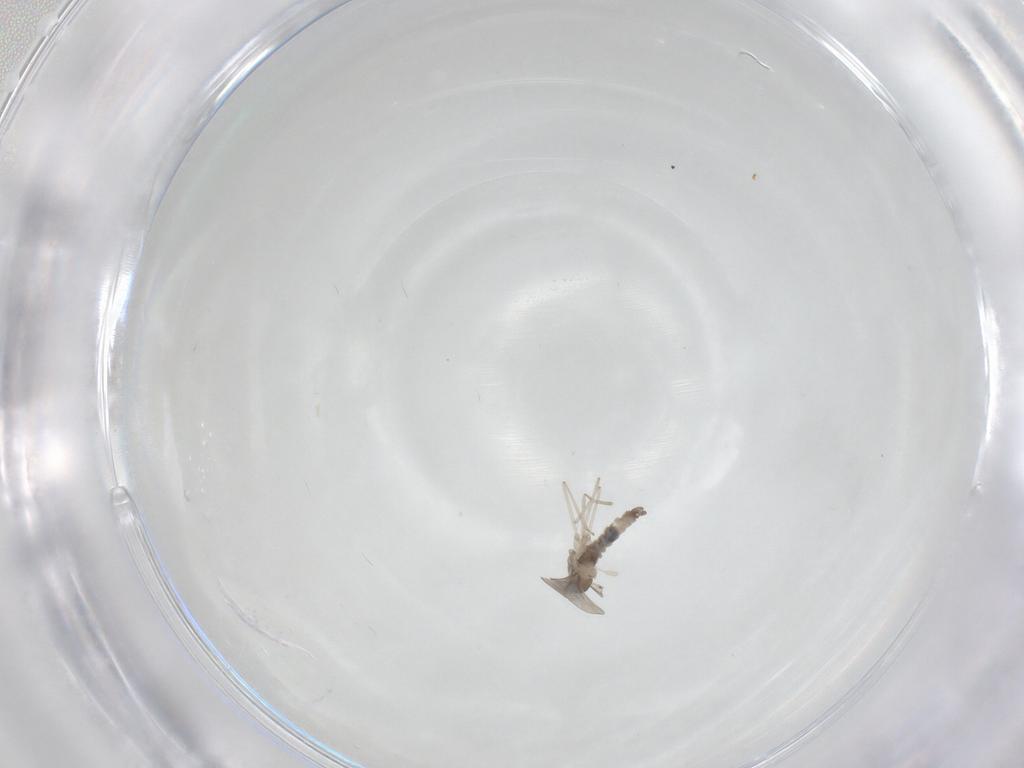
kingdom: Animalia
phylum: Arthropoda
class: Insecta
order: Diptera
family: Cecidomyiidae
